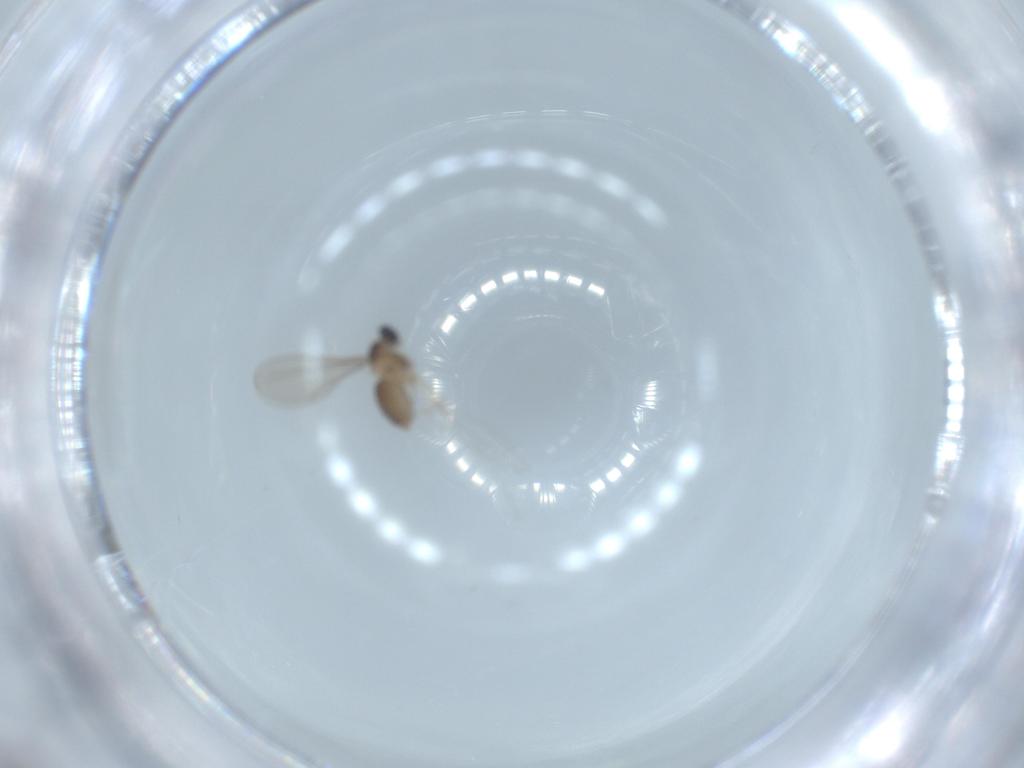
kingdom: Animalia
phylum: Arthropoda
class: Insecta
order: Diptera
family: Cecidomyiidae
